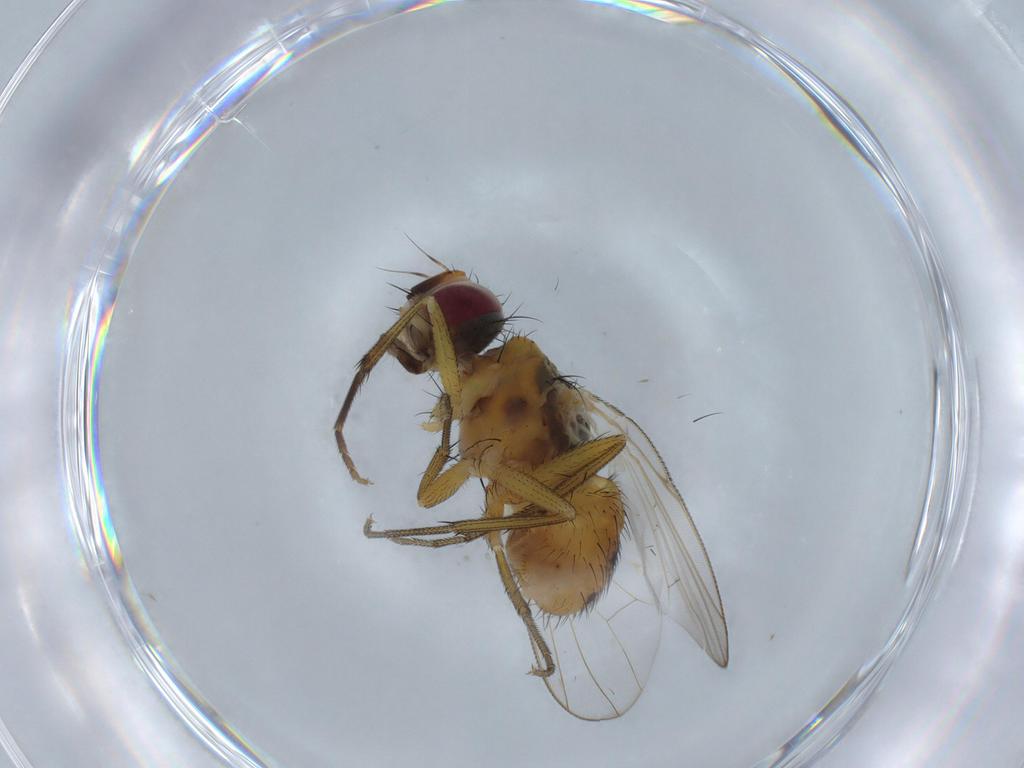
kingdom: Animalia
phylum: Arthropoda
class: Insecta
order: Diptera
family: Muscidae
